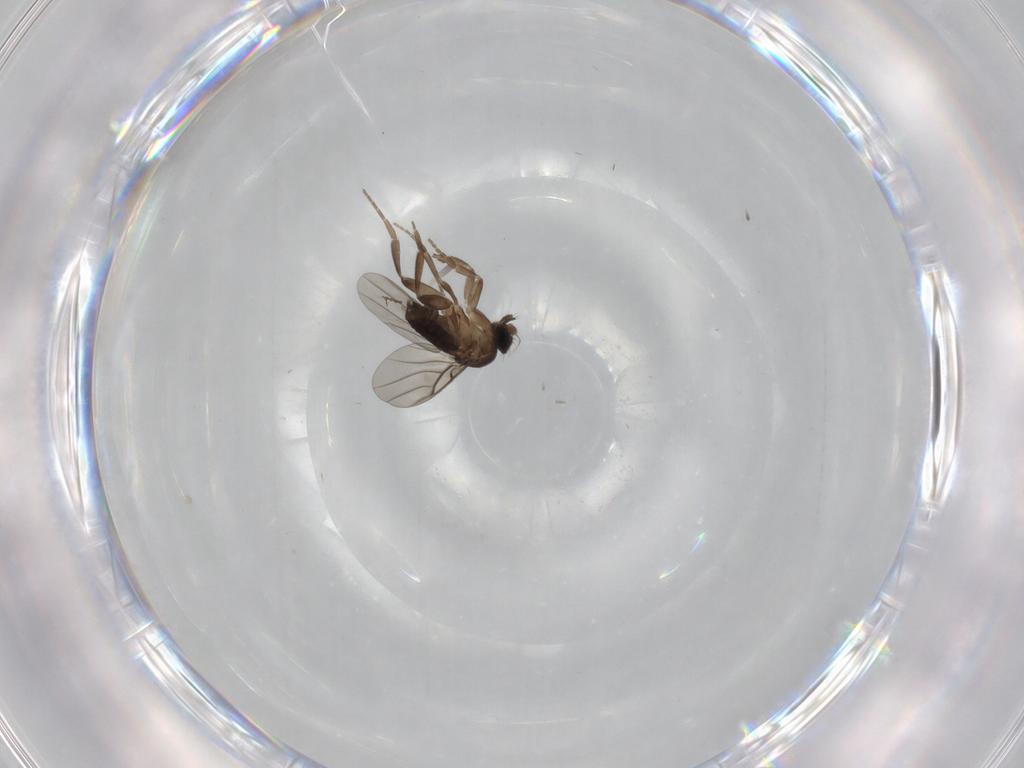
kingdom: Animalia
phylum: Arthropoda
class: Insecta
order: Diptera
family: Phoridae
